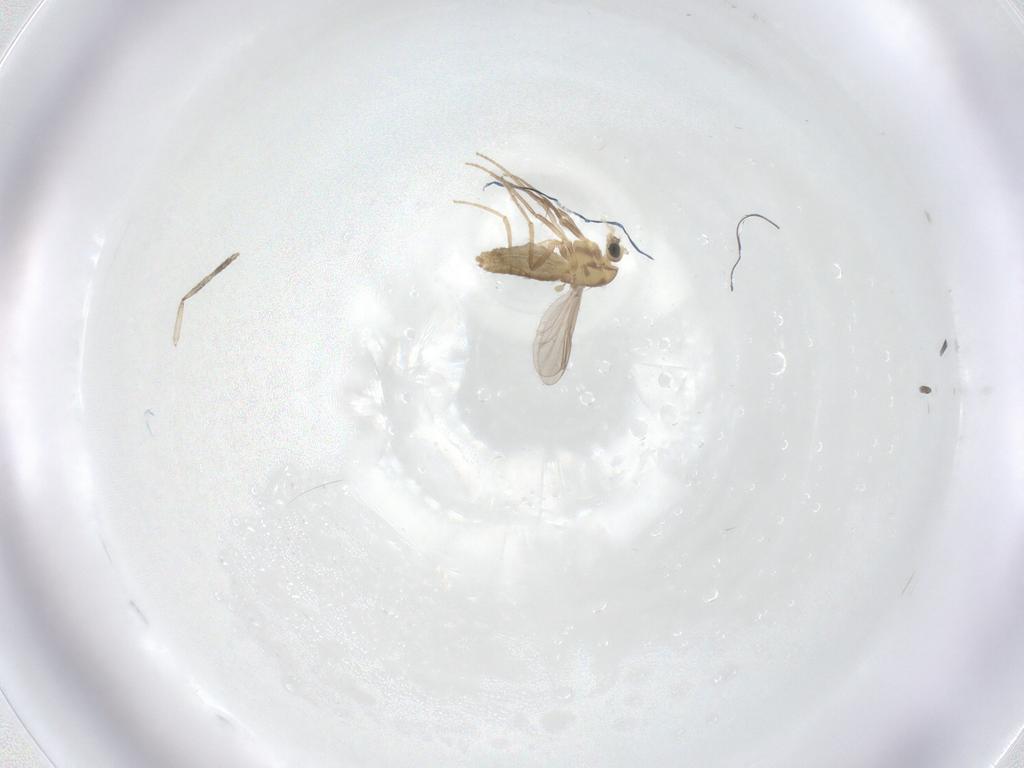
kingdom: Animalia
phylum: Arthropoda
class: Insecta
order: Diptera
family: Chironomidae
